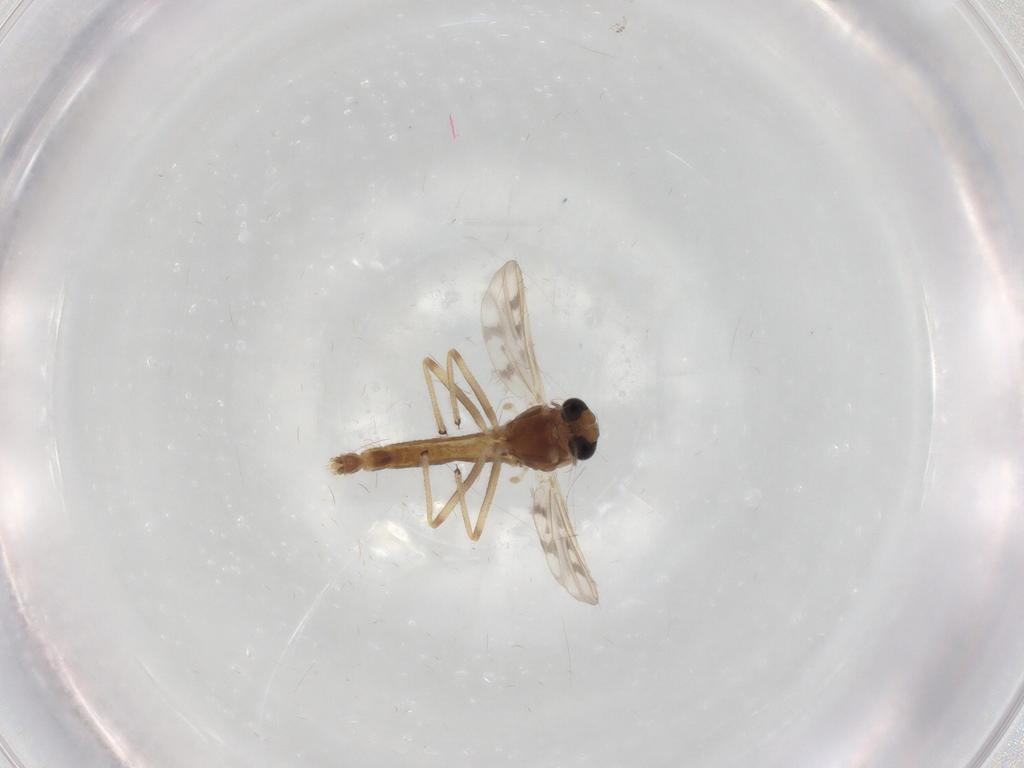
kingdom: Animalia
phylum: Arthropoda
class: Insecta
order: Diptera
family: Chironomidae
